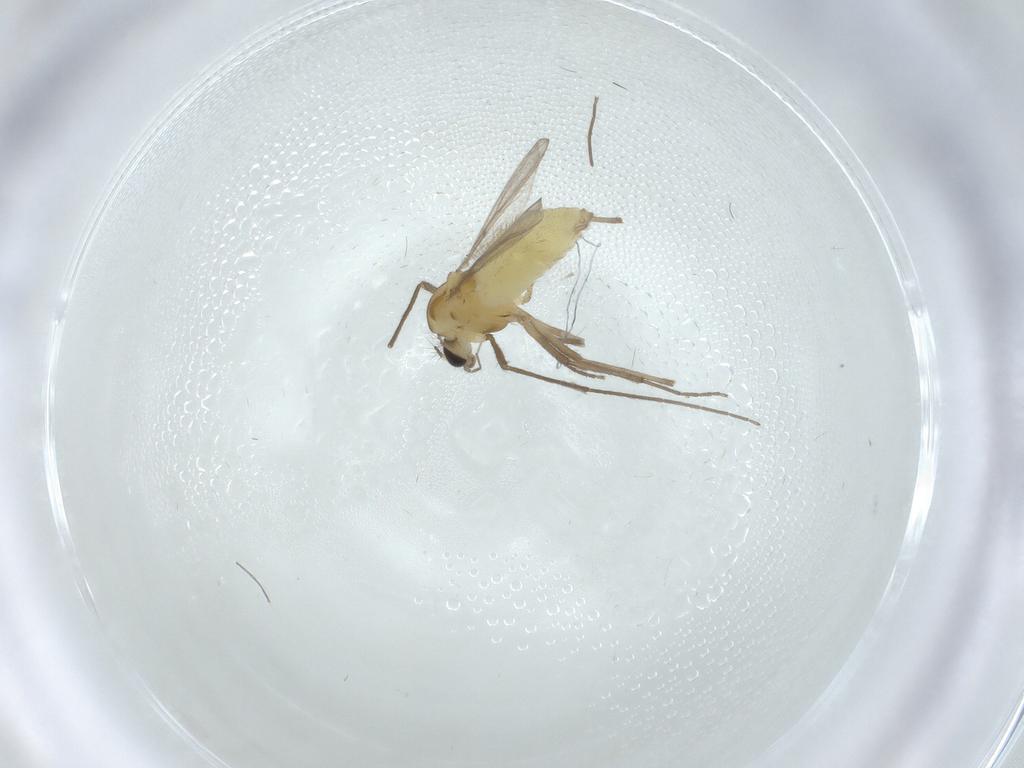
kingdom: Animalia
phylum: Arthropoda
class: Insecta
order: Diptera
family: Chironomidae
